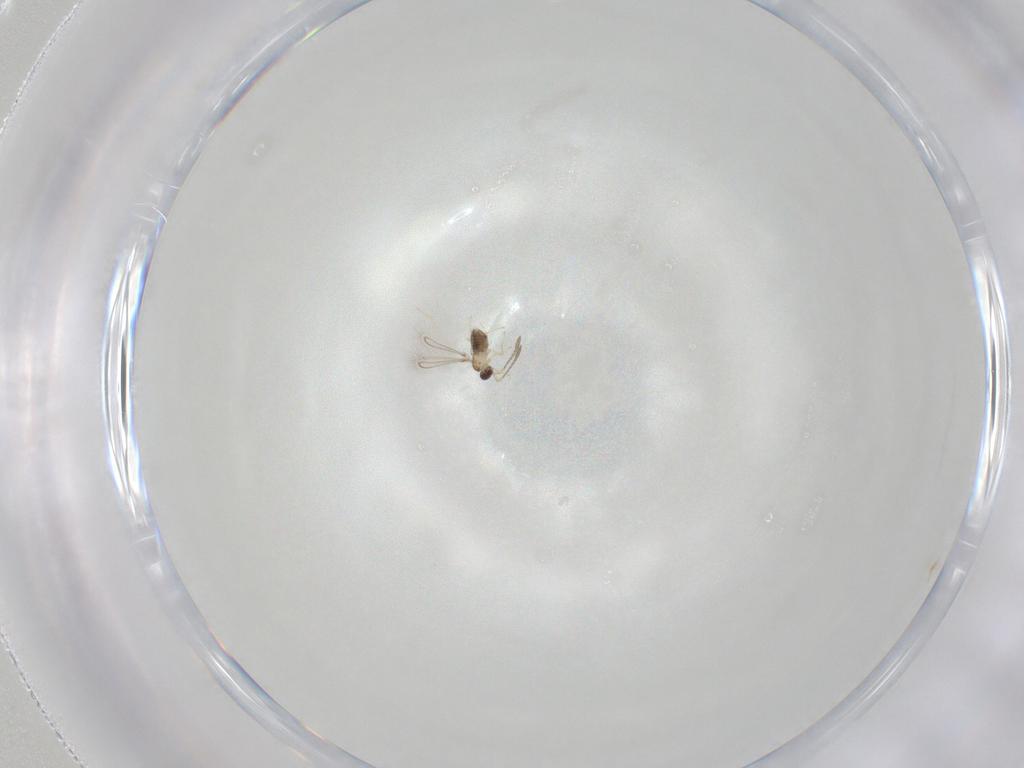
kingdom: Animalia
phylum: Arthropoda
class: Insecta
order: Hymenoptera
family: Mymaridae
